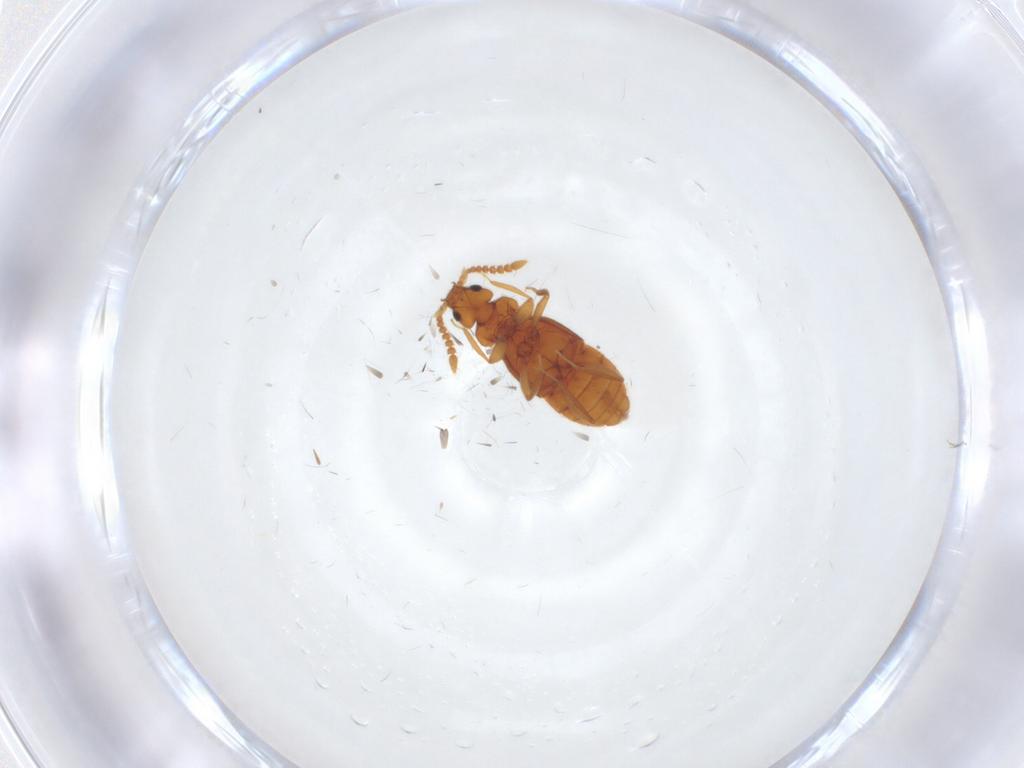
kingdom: Animalia
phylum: Arthropoda
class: Insecta
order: Coleoptera
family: Staphylinidae
